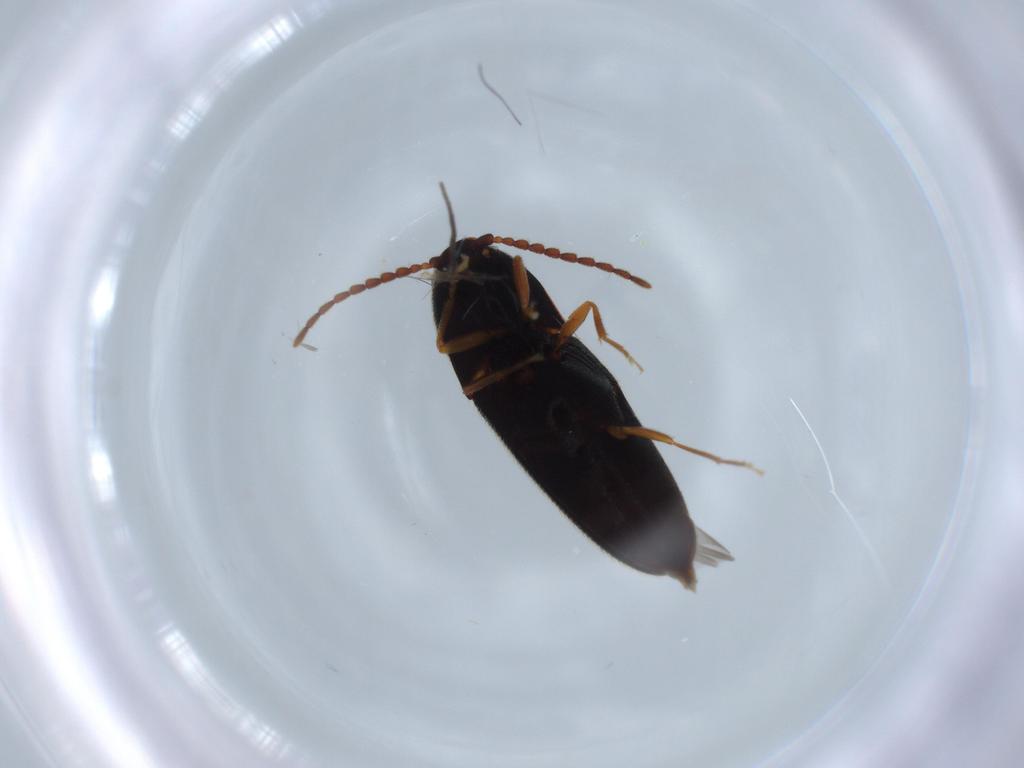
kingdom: Animalia
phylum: Arthropoda
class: Insecta
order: Coleoptera
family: Elateridae
